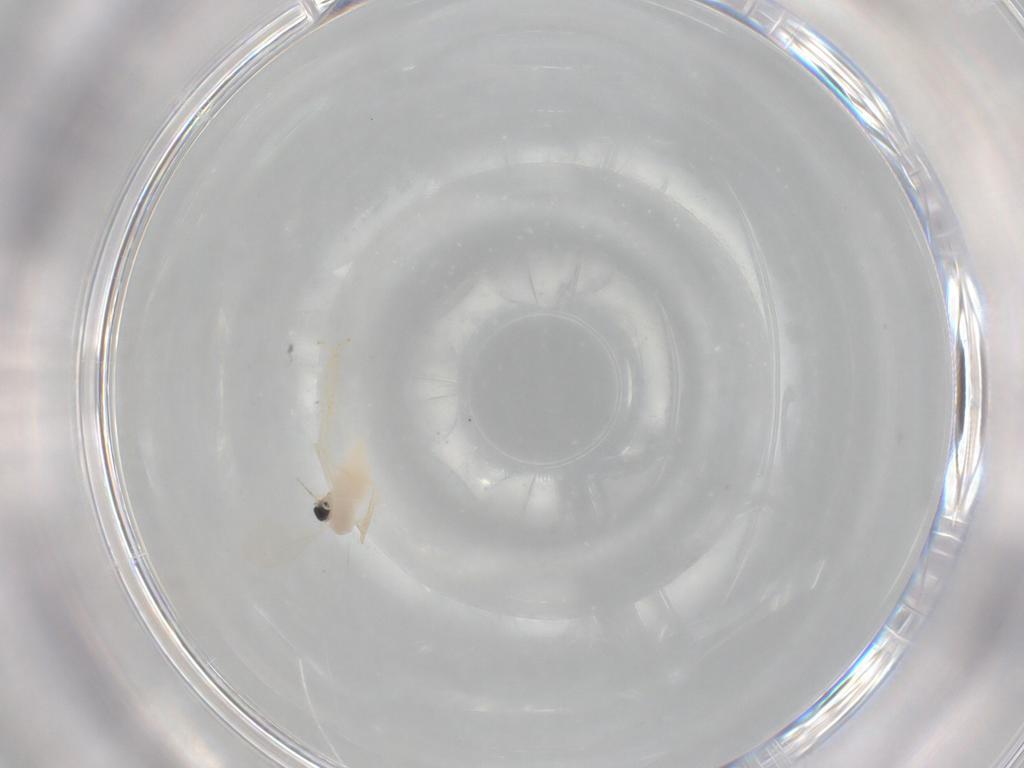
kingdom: Animalia
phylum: Arthropoda
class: Insecta
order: Diptera
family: Cecidomyiidae
